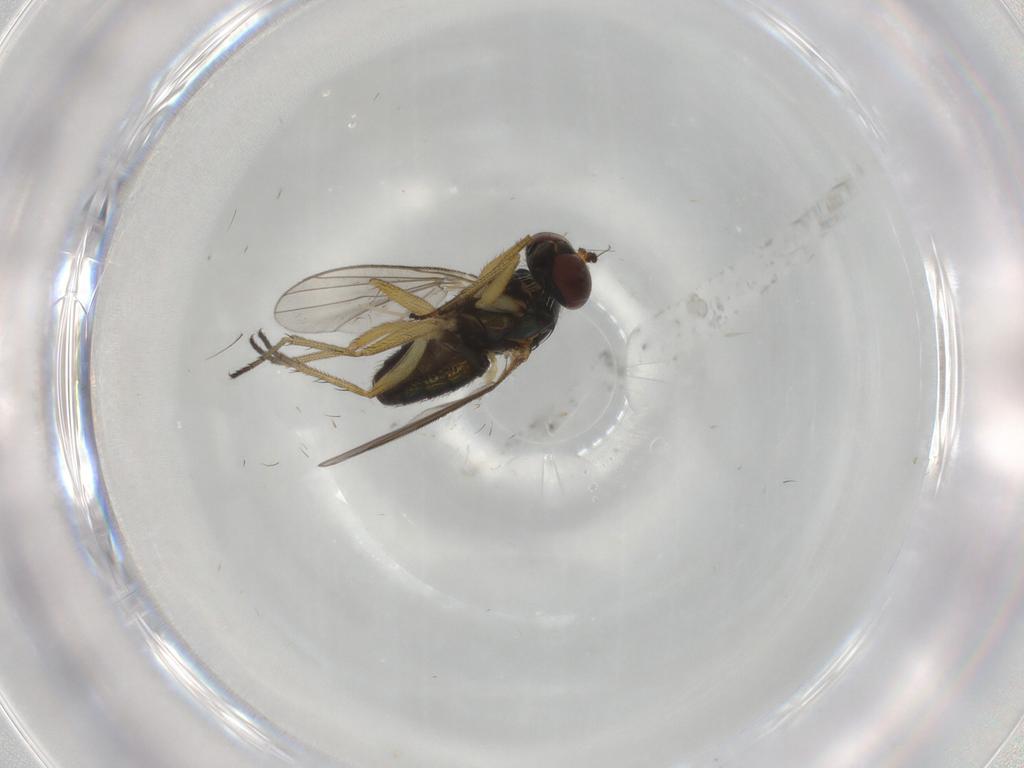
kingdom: Animalia
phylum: Arthropoda
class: Insecta
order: Diptera
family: Dolichopodidae
